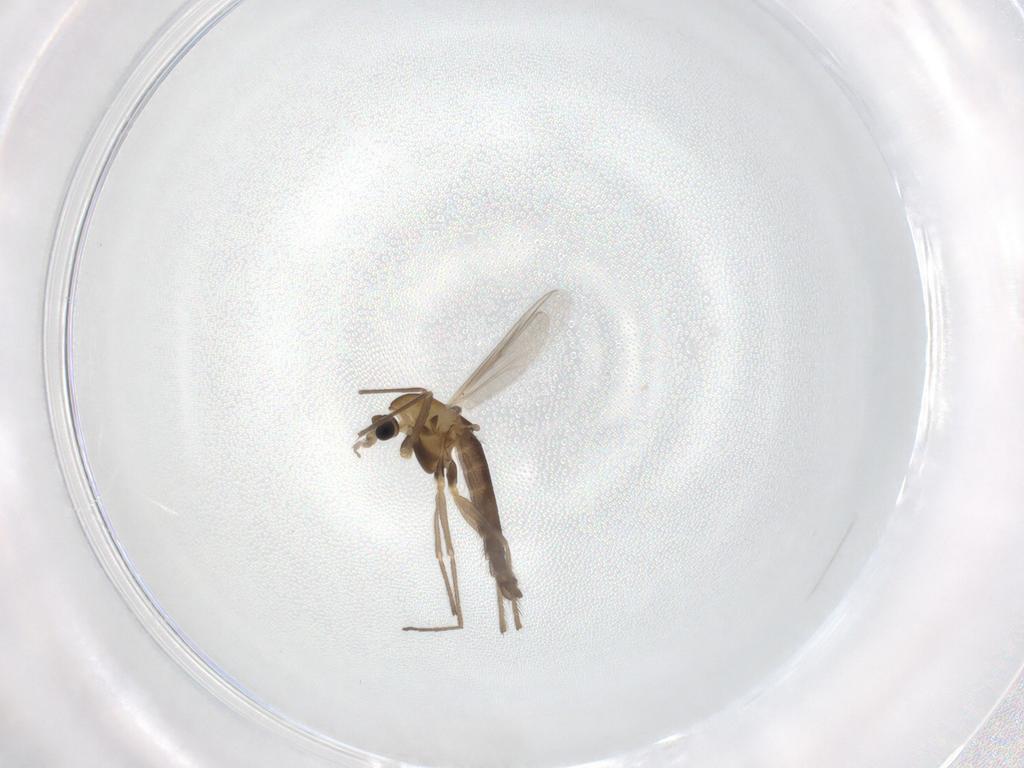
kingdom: Animalia
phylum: Arthropoda
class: Insecta
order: Diptera
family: Chironomidae
